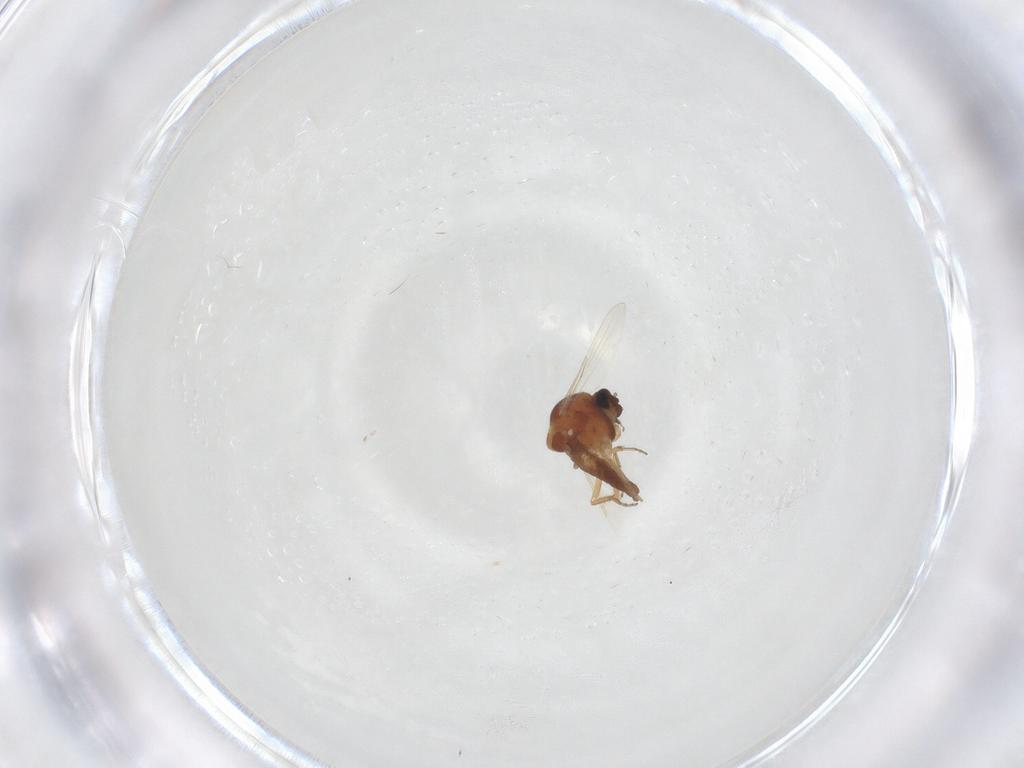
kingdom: Animalia
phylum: Arthropoda
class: Insecta
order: Diptera
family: Ceratopogonidae
